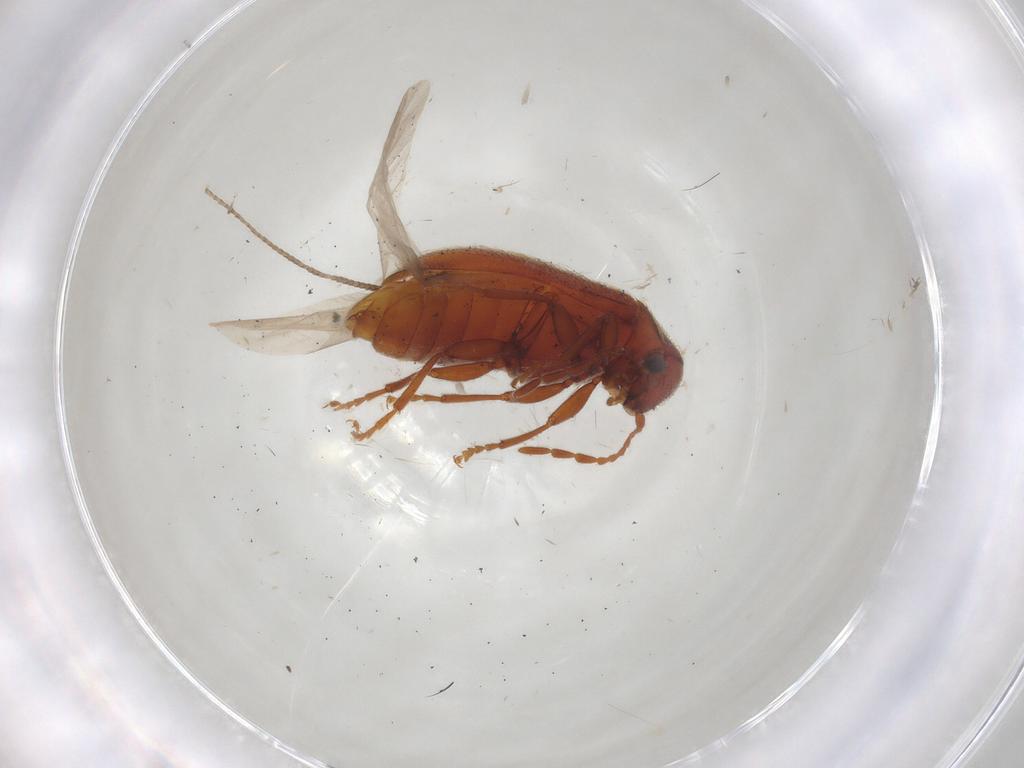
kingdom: Animalia
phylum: Arthropoda
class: Insecta
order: Coleoptera
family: Ptinidae
